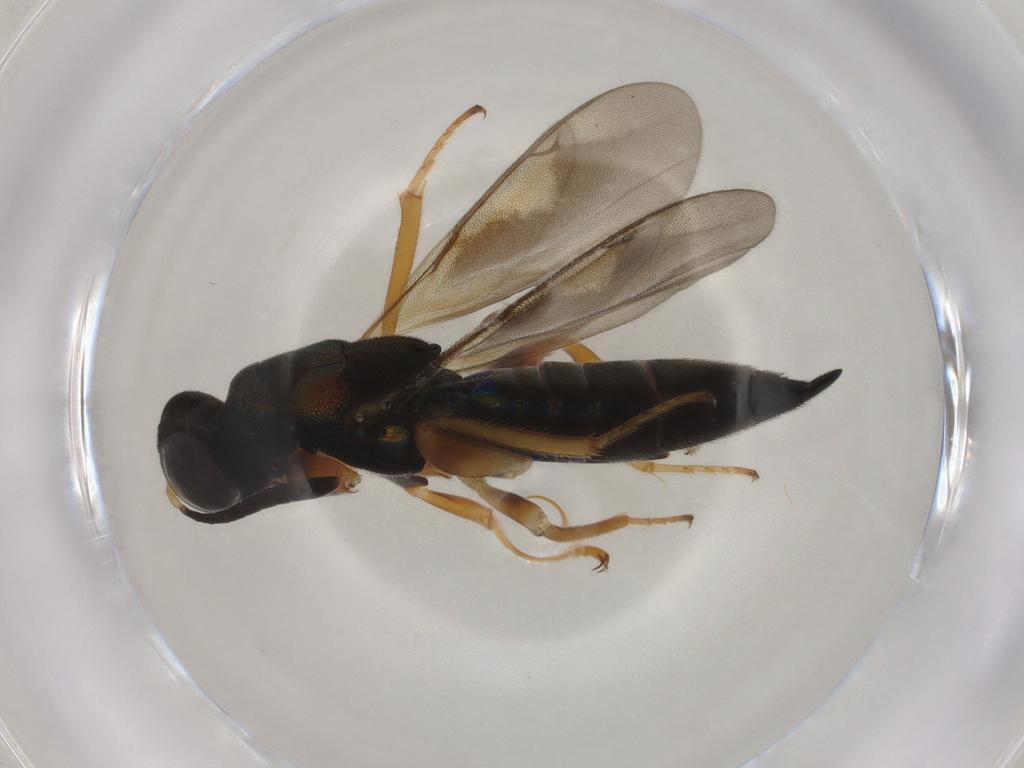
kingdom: Animalia
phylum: Arthropoda
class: Insecta
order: Hymenoptera
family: Lyciscidae
